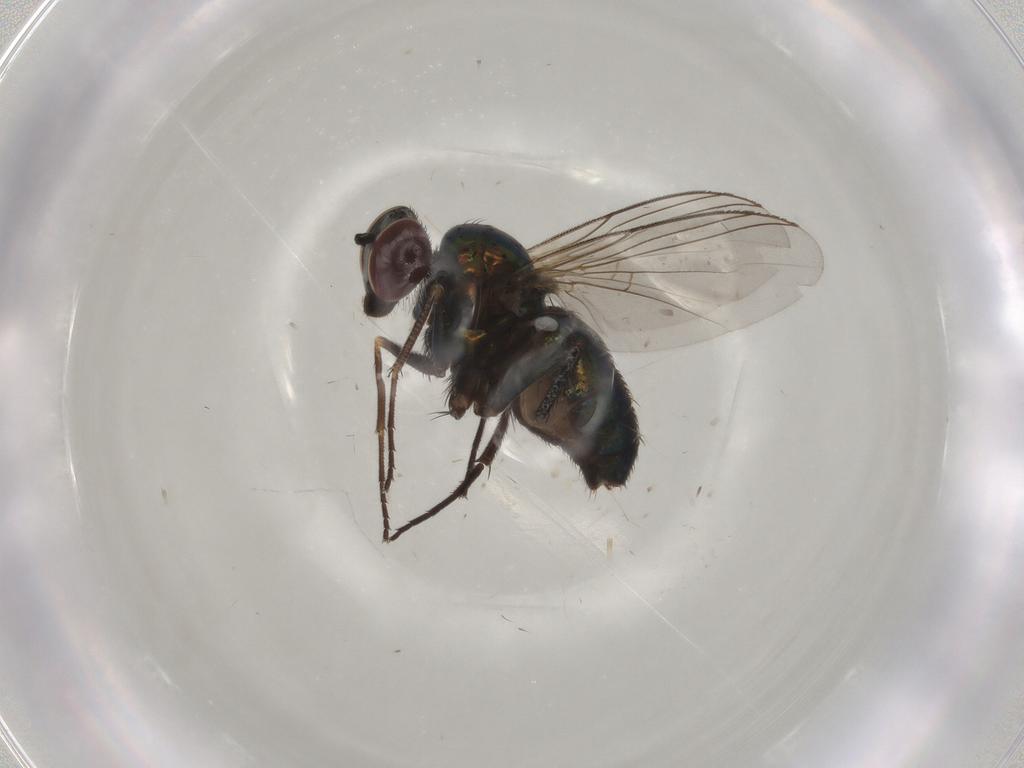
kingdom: Animalia
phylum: Arthropoda
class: Insecta
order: Diptera
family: Dolichopodidae
